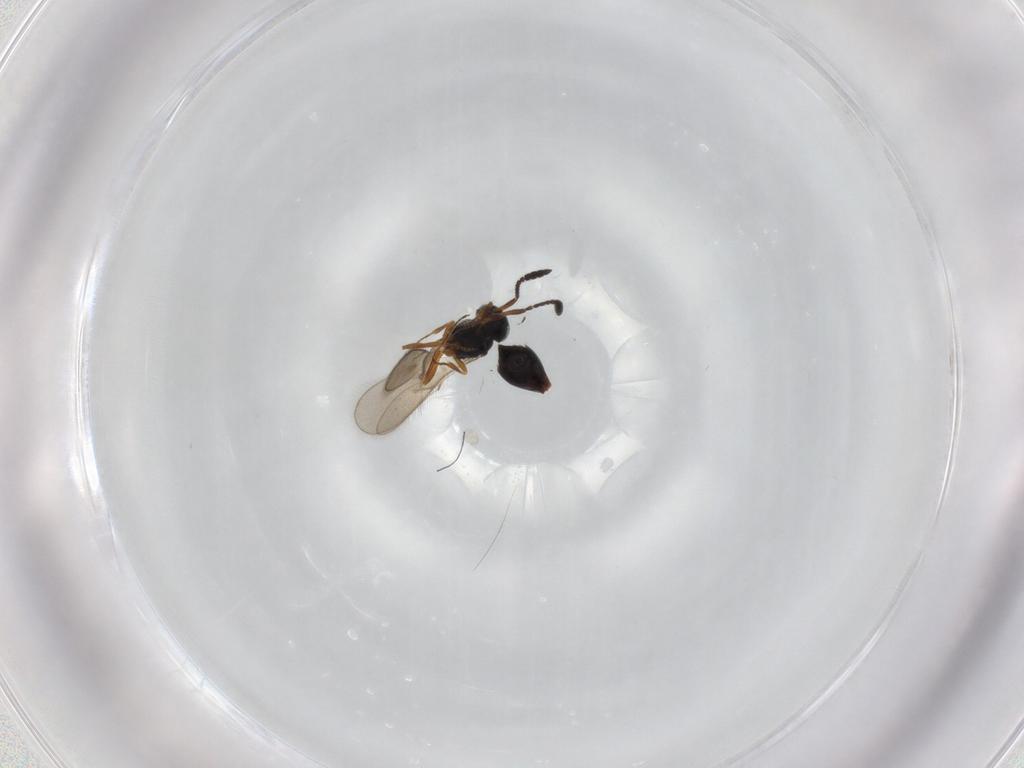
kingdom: Animalia
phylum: Arthropoda
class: Insecta
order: Hymenoptera
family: Scelionidae
